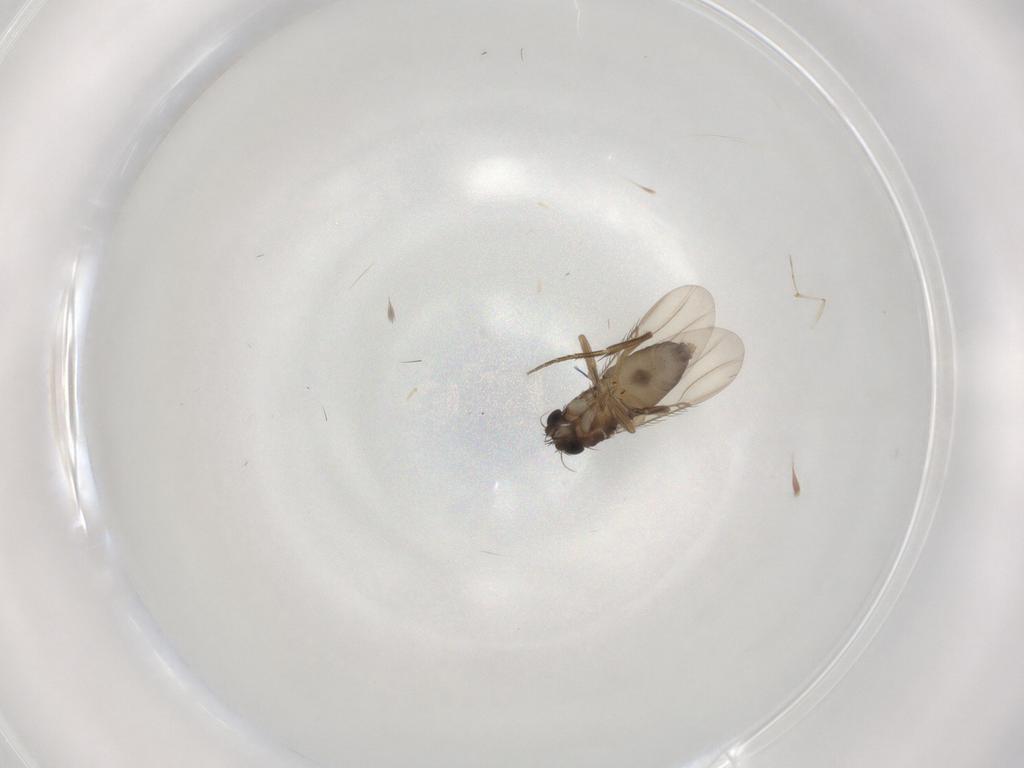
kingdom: Animalia
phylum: Arthropoda
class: Insecta
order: Diptera
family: Phoridae
